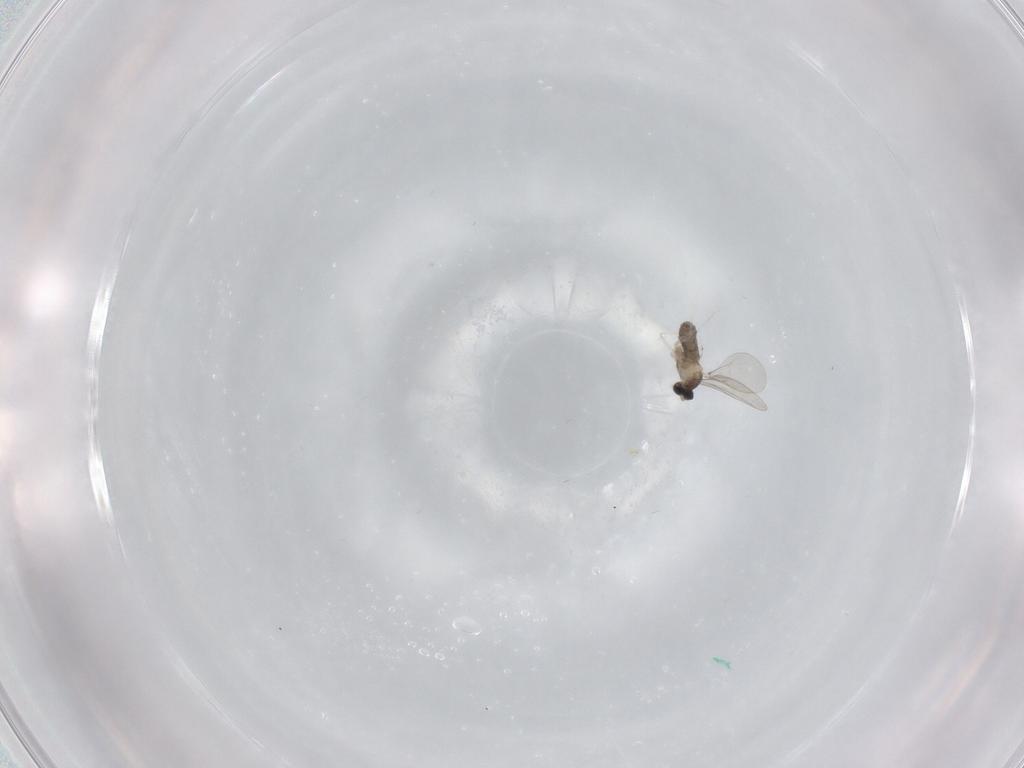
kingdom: Animalia
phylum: Arthropoda
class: Insecta
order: Diptera
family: Cecidomyiidae
